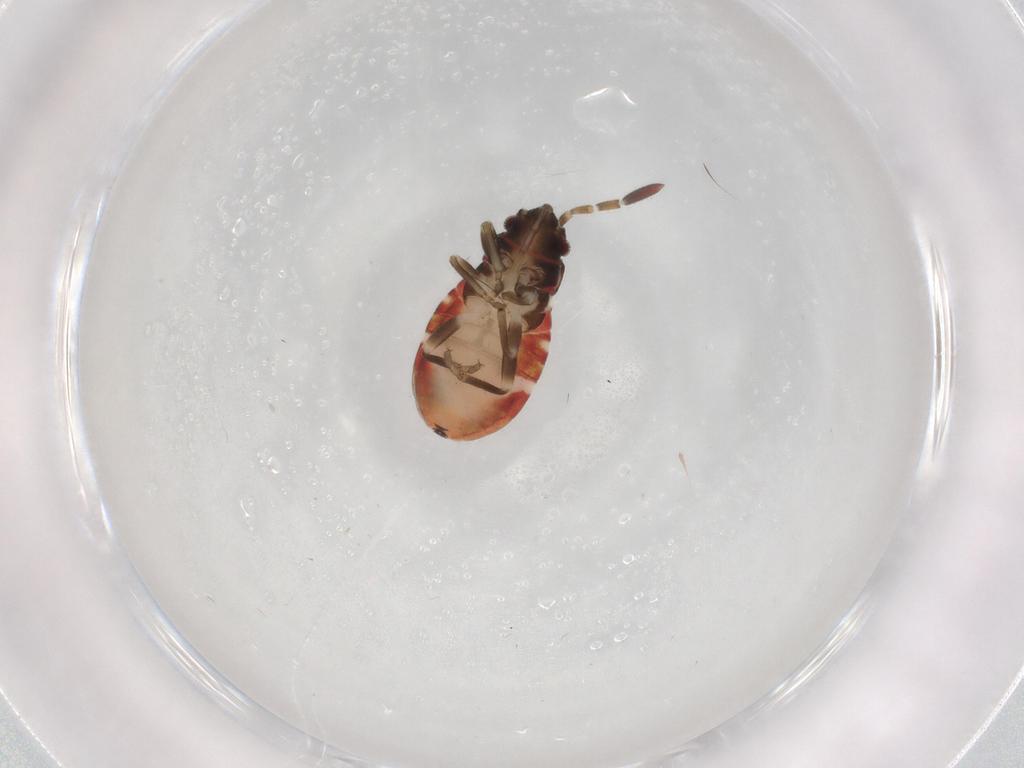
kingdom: Animalia
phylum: Arthropoda
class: Insecta
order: Hemiptera
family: Rhyparochromidae
